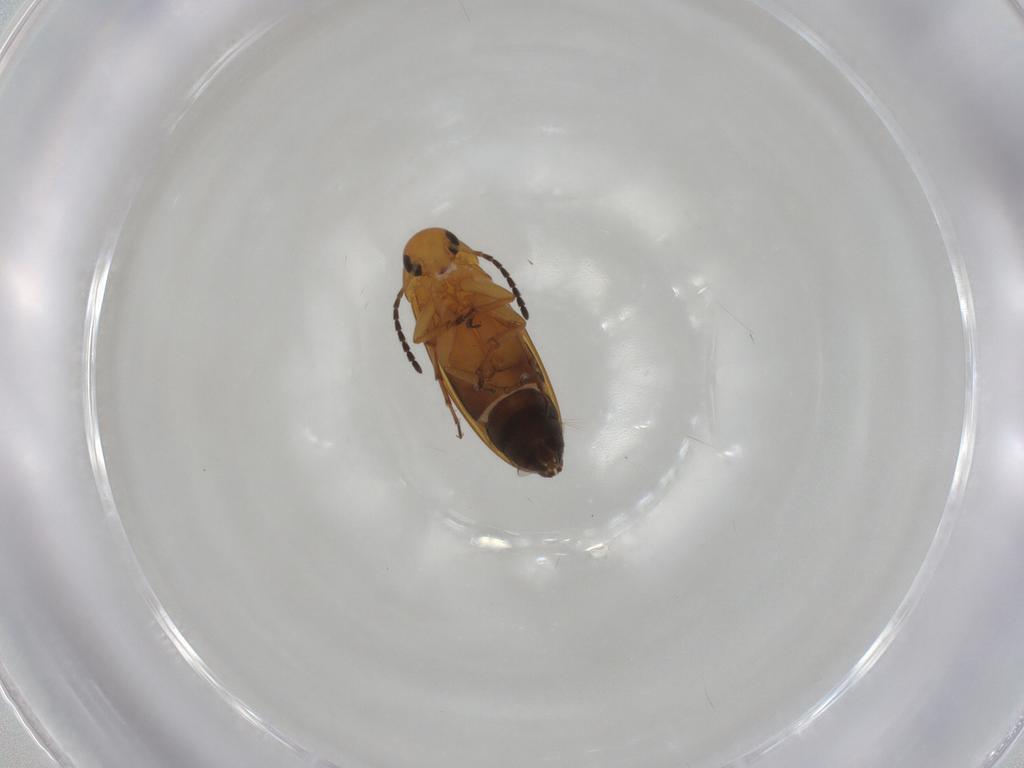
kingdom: Animalia
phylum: Arthropoda
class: Insecta
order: Coleoptera
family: Scraptiidae
